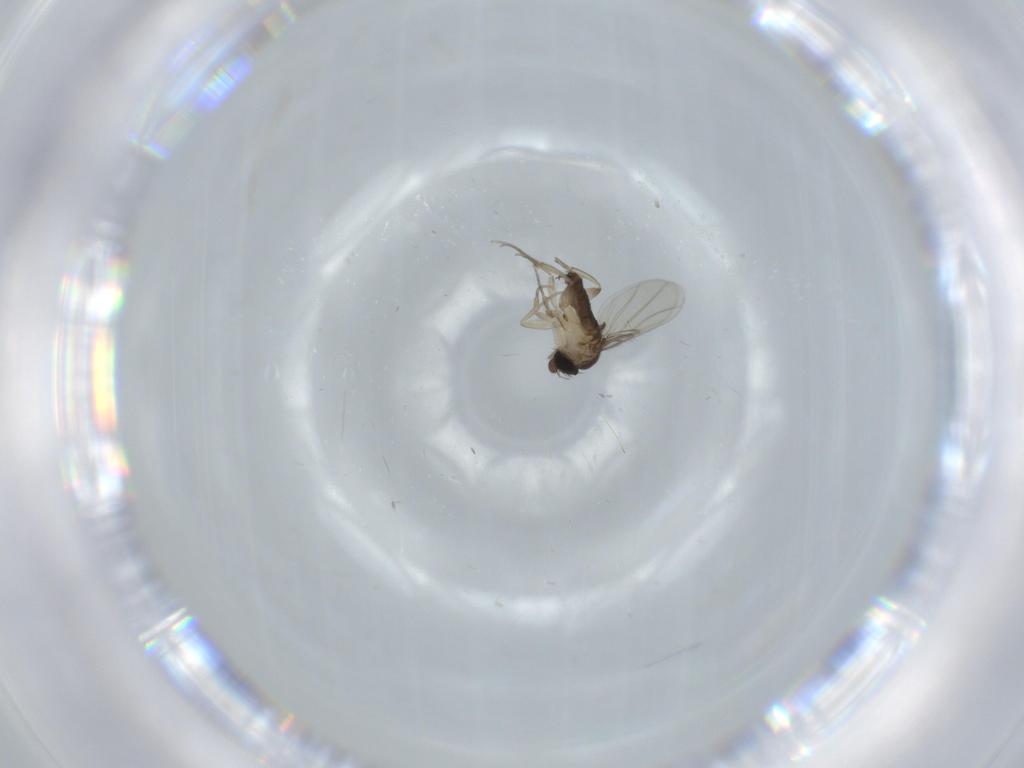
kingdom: Animalia
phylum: Arthropoda
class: Insecta
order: Diptera
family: Phoridae
